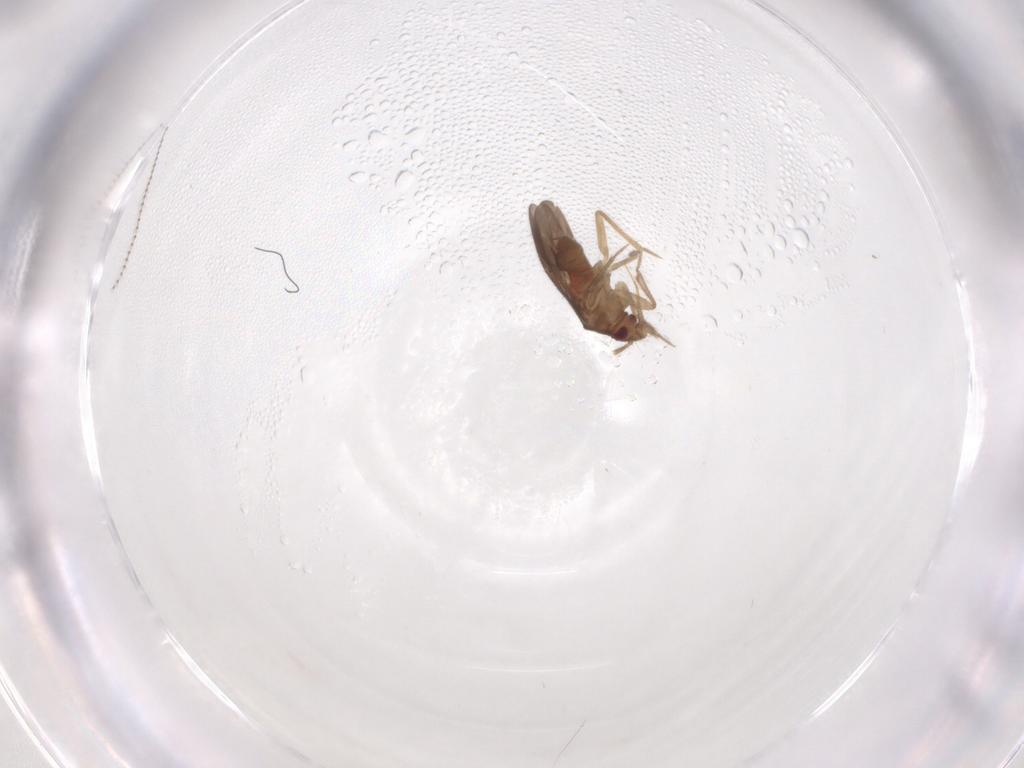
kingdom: Animalia
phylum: Arthropoda
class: Insecta
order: Hemiptera
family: Ceratocombidae
